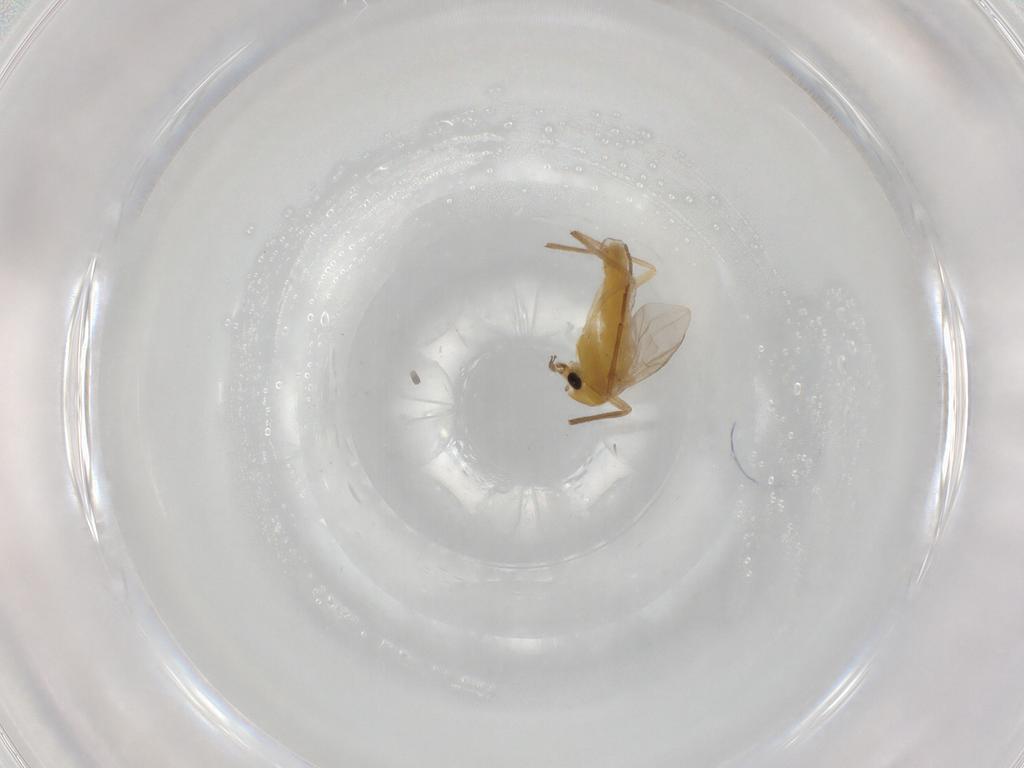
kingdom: Animalia
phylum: Arthropoda
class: Insecta
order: Diptera
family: Chironomidae
